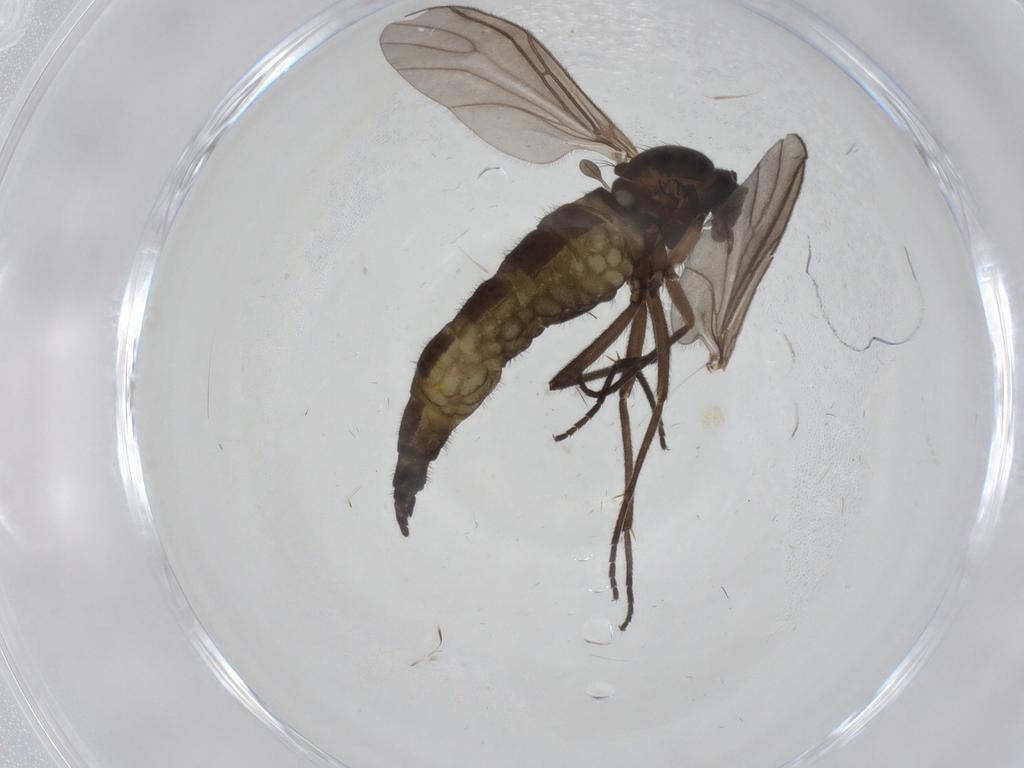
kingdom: Animalia
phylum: Arthropoda
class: Insecta
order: Diptera
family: Sciaridae
